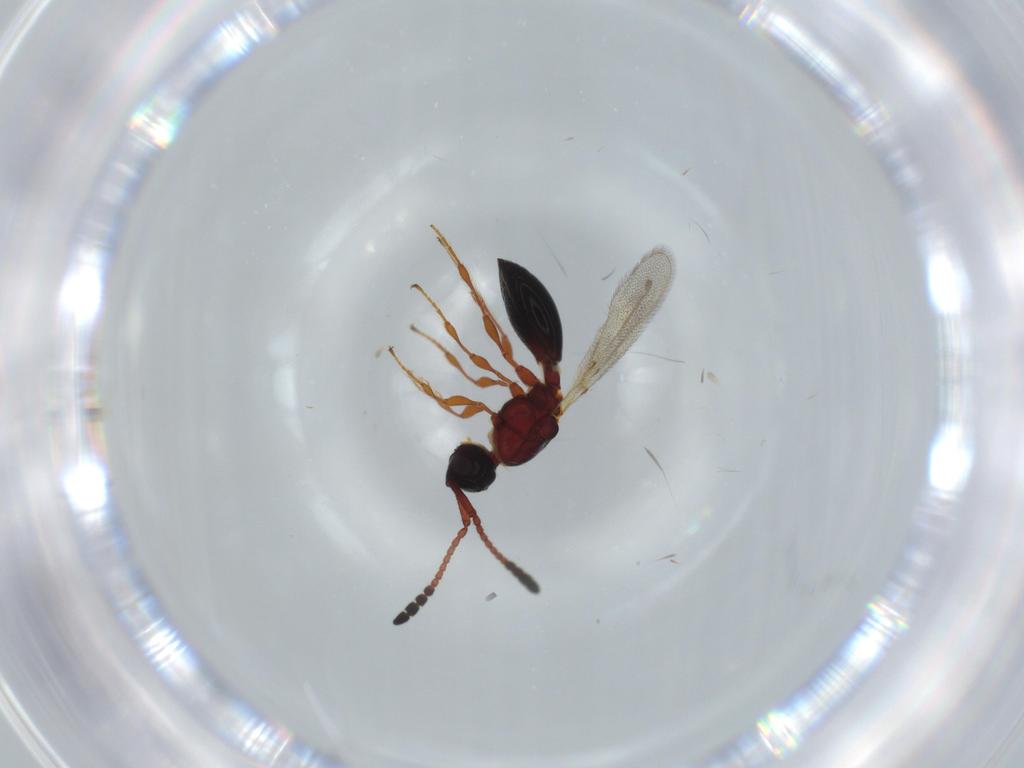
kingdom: Animalia
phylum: Arthropoda
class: Insecta
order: Hymenoptera
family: Diapriidae
